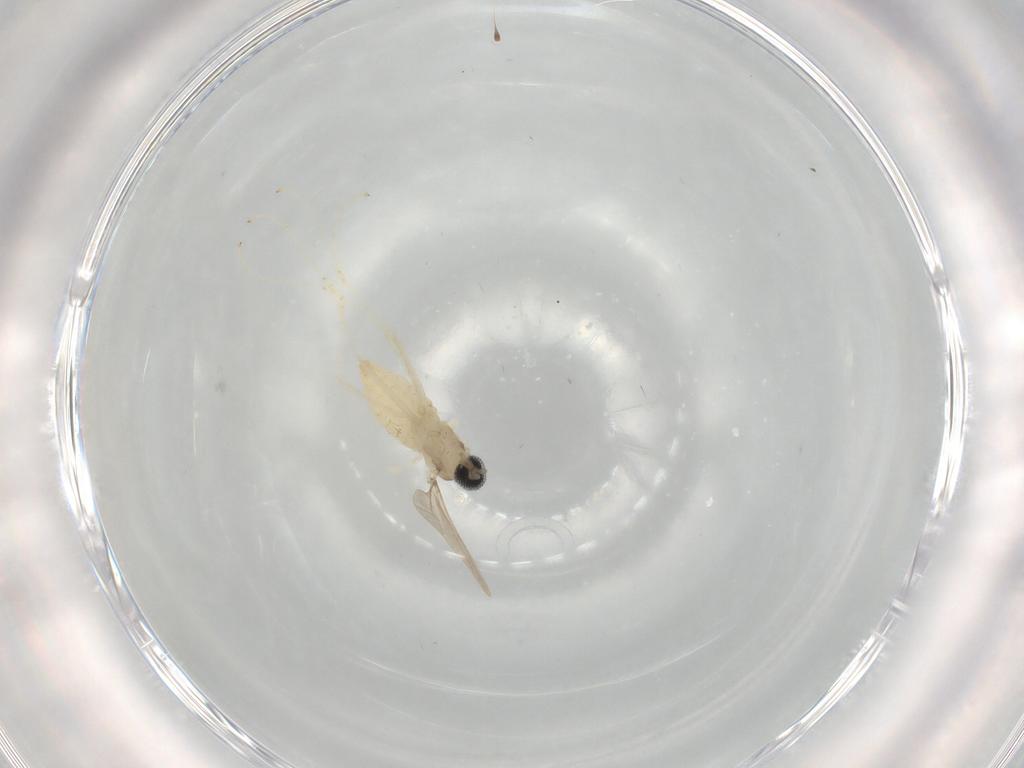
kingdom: Animalia
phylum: Arthropoda
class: Insecta
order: Diptera
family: Cecidomyiidae
